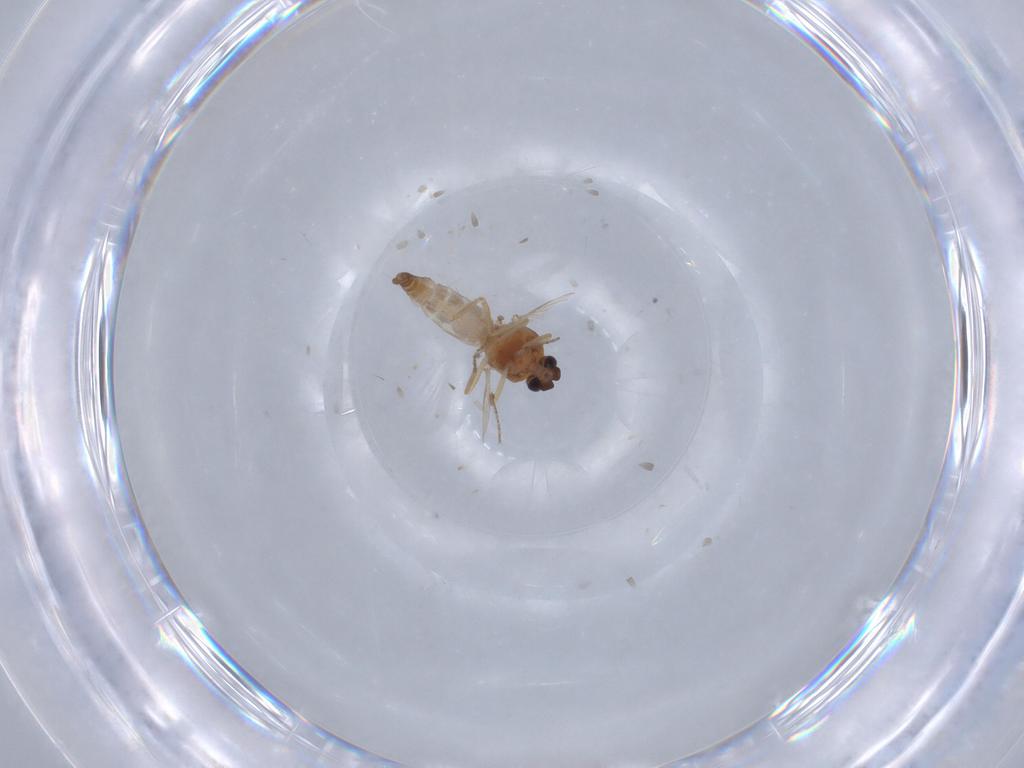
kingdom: Animalia
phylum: Arthropoda
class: Insecta
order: Diptera
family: Ceratopogonidae
